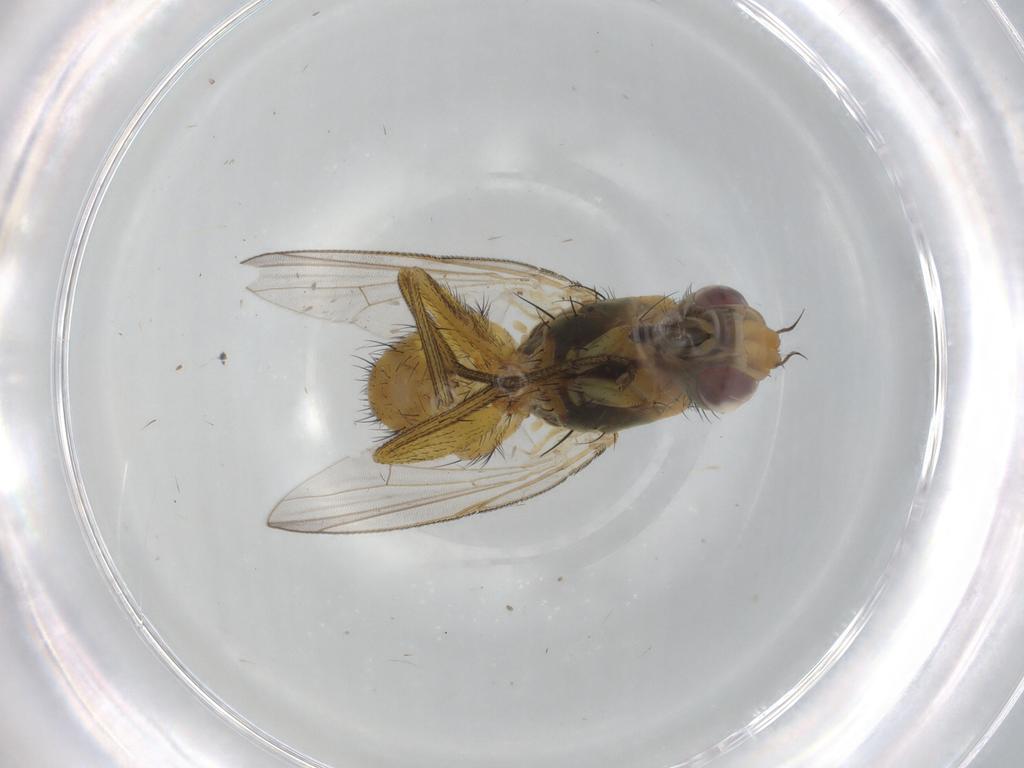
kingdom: Animalia
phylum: Arthropoda
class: Insecta
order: Diptera
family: Muscidae
